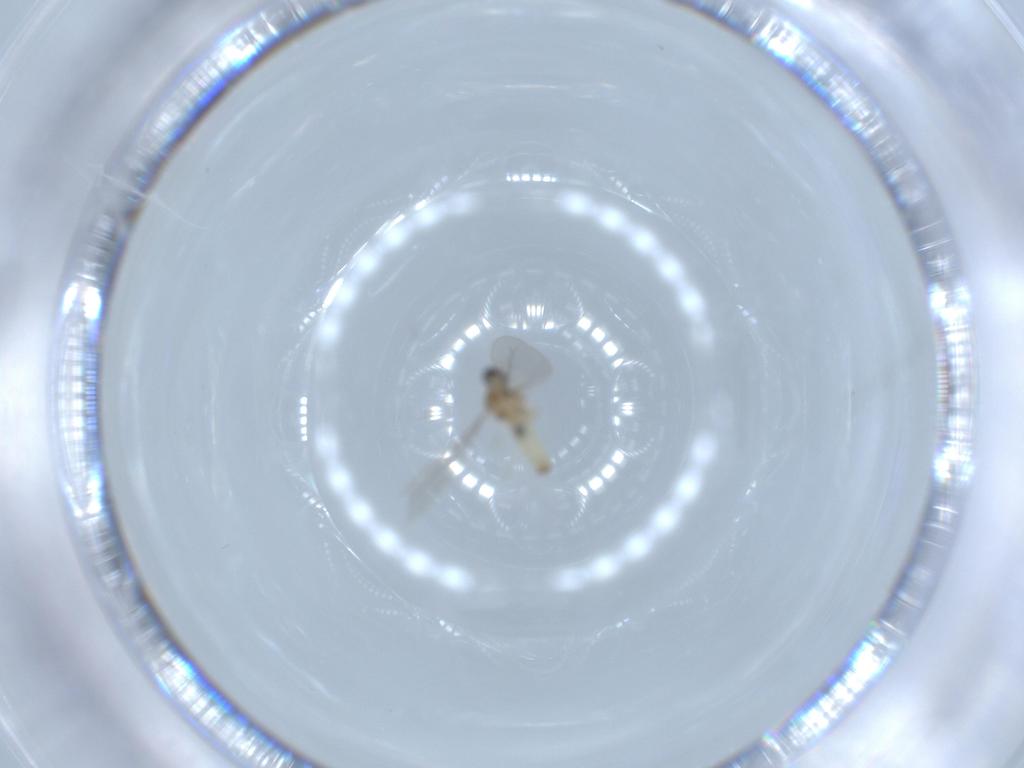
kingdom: Animalia
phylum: Arthropoda
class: Insecta
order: Diptera
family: Cecidomyiidae
